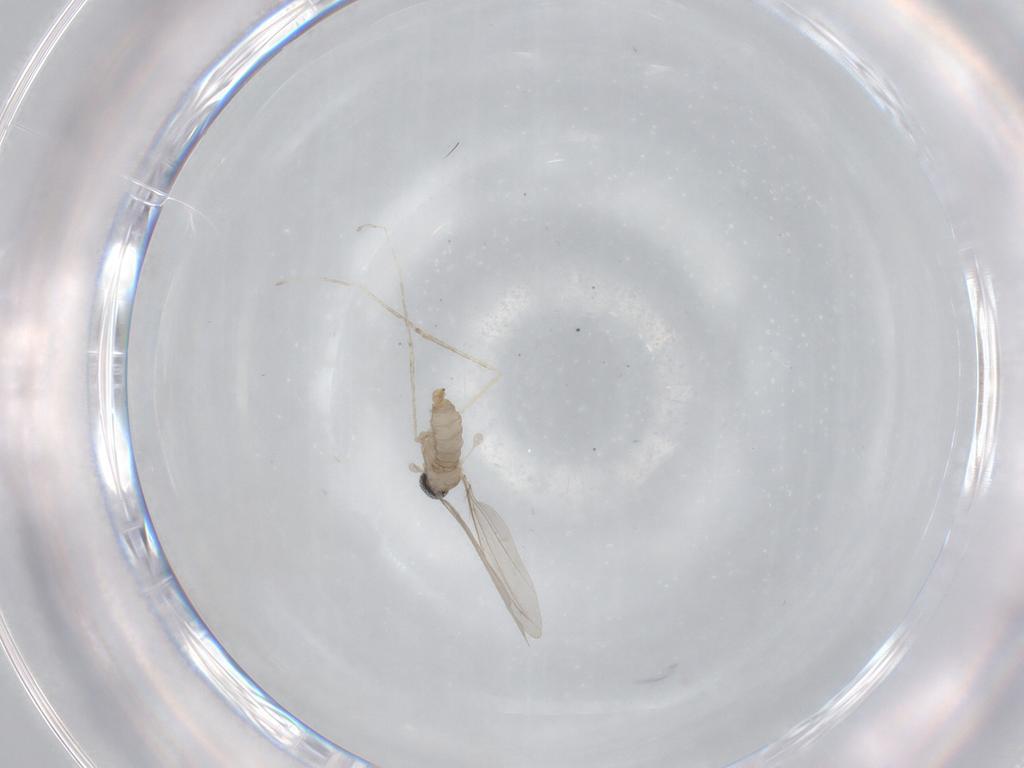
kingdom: Animalia
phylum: Arthropoda
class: Insecta
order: Diptera
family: Cecidomyiidae
